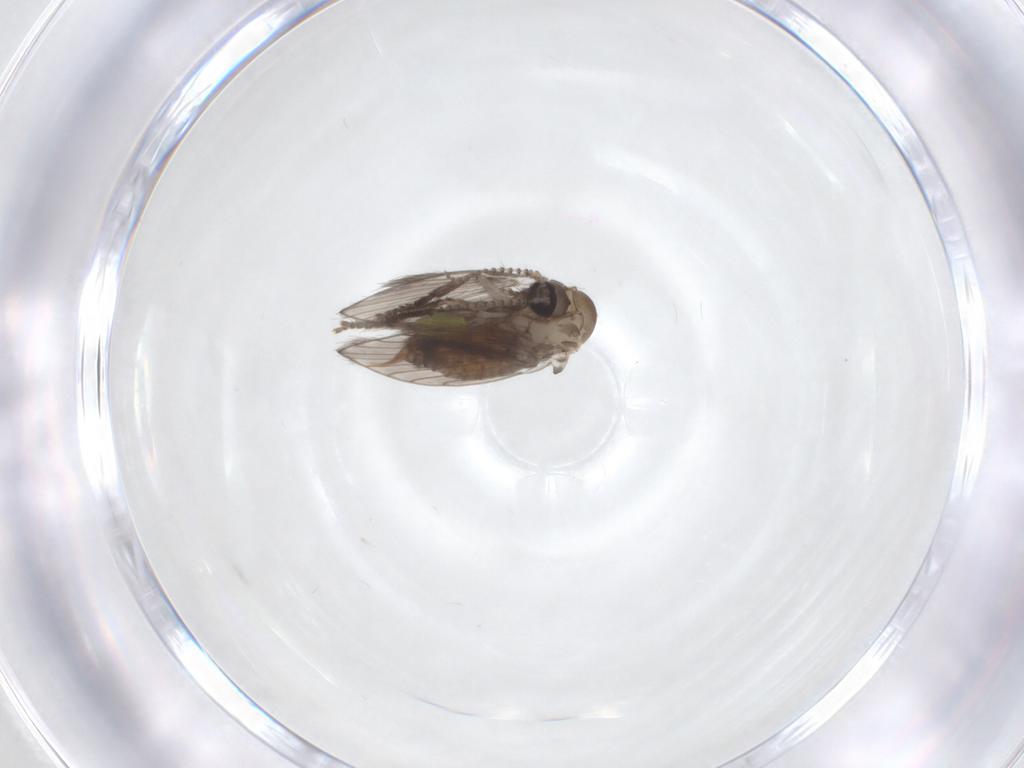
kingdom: Animalia
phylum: Arthropoda
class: Insecta
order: Diptera
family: Psychodidae
